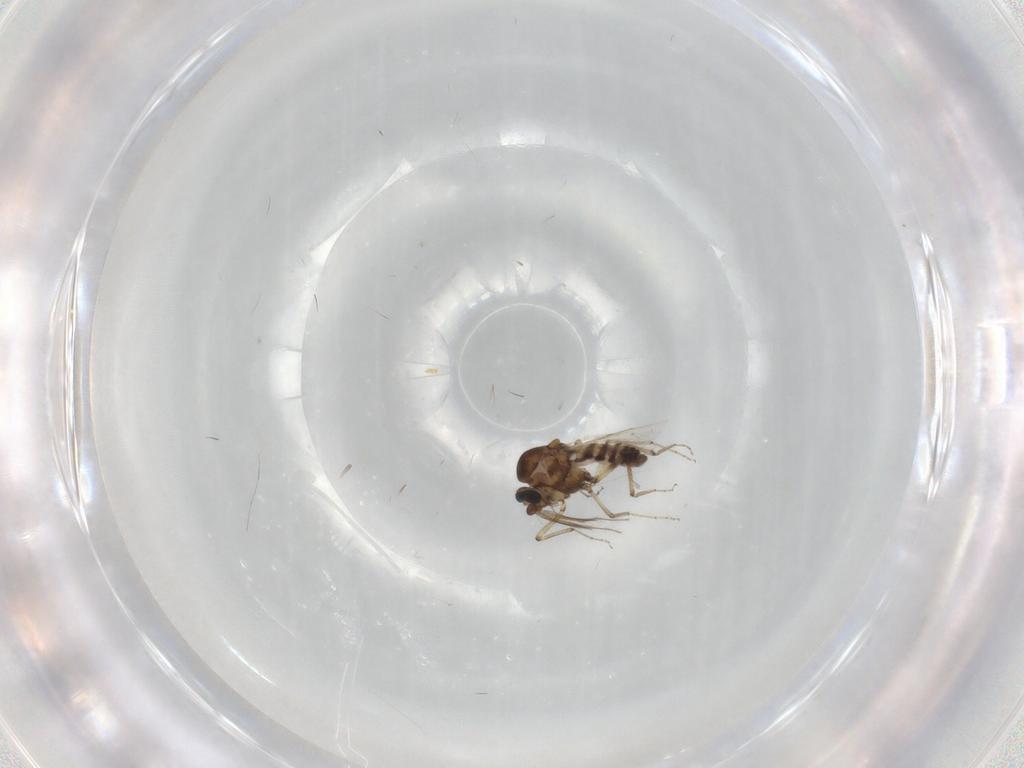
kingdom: Animalia
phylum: Arthropoda
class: Insecta
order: Diptera
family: Ceratopogonidae
